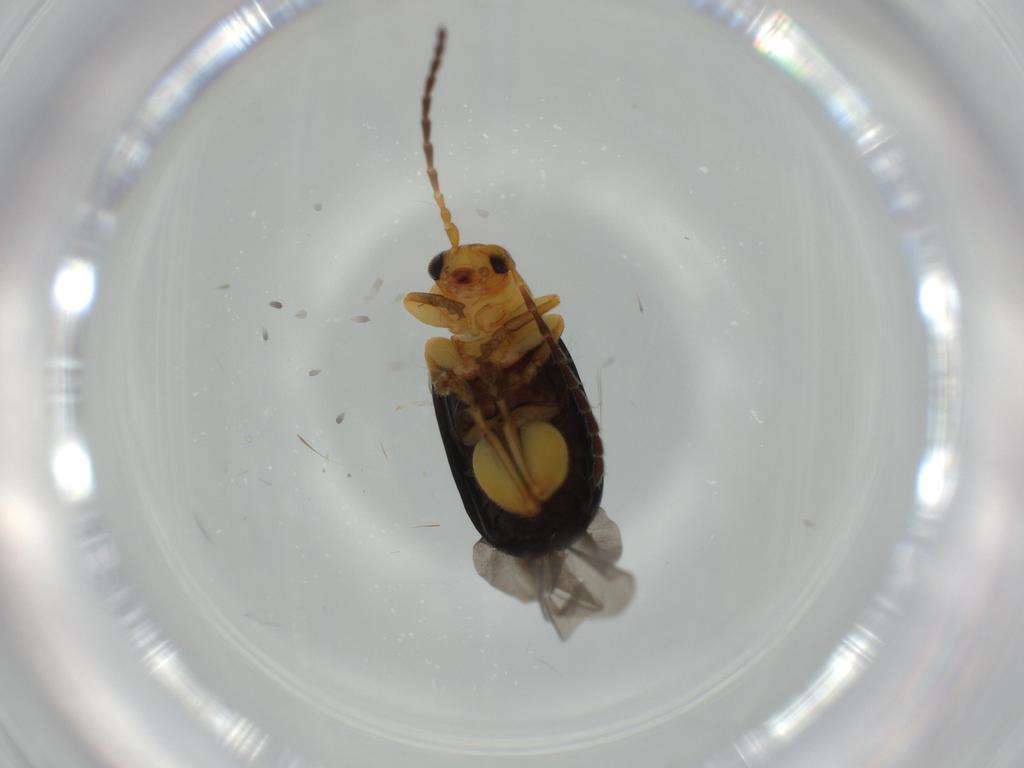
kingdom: Animalia
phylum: Arthropoda
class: Insecta
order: Coleoptera
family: Chrysomelidae
